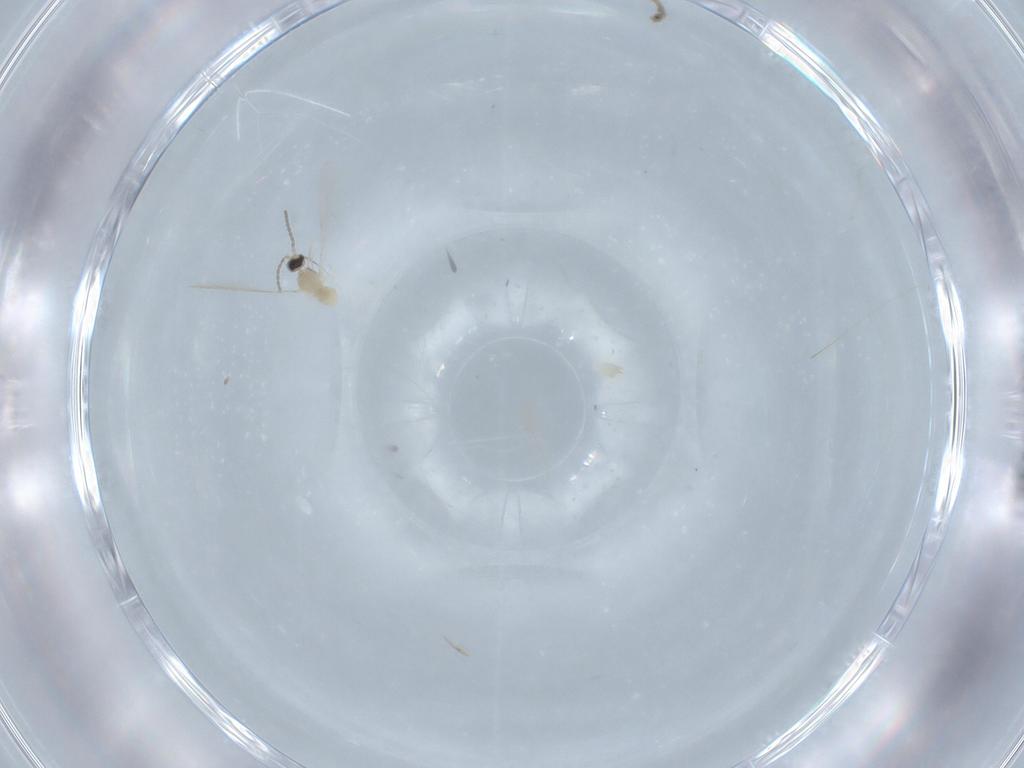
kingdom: Animalia
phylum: Arthropoda
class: Insecta
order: Diptera
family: Cecidomyiidae
